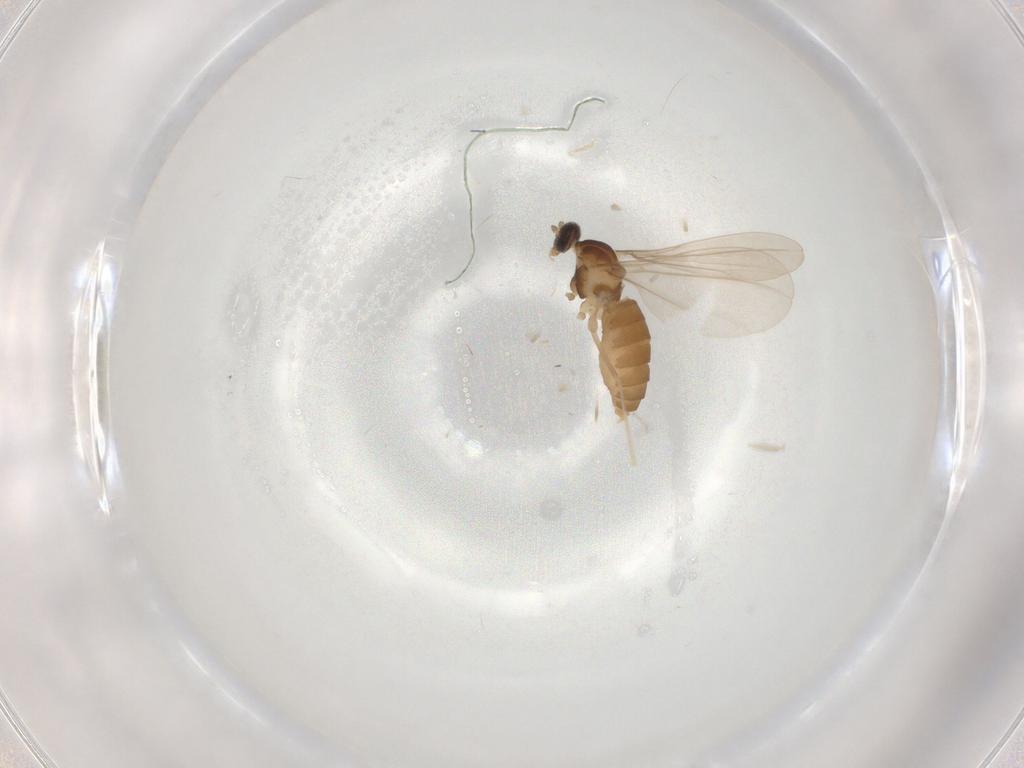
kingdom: Animalia
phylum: Arthropoda
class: Insecta
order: Diptera
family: Cecidomyiidae
